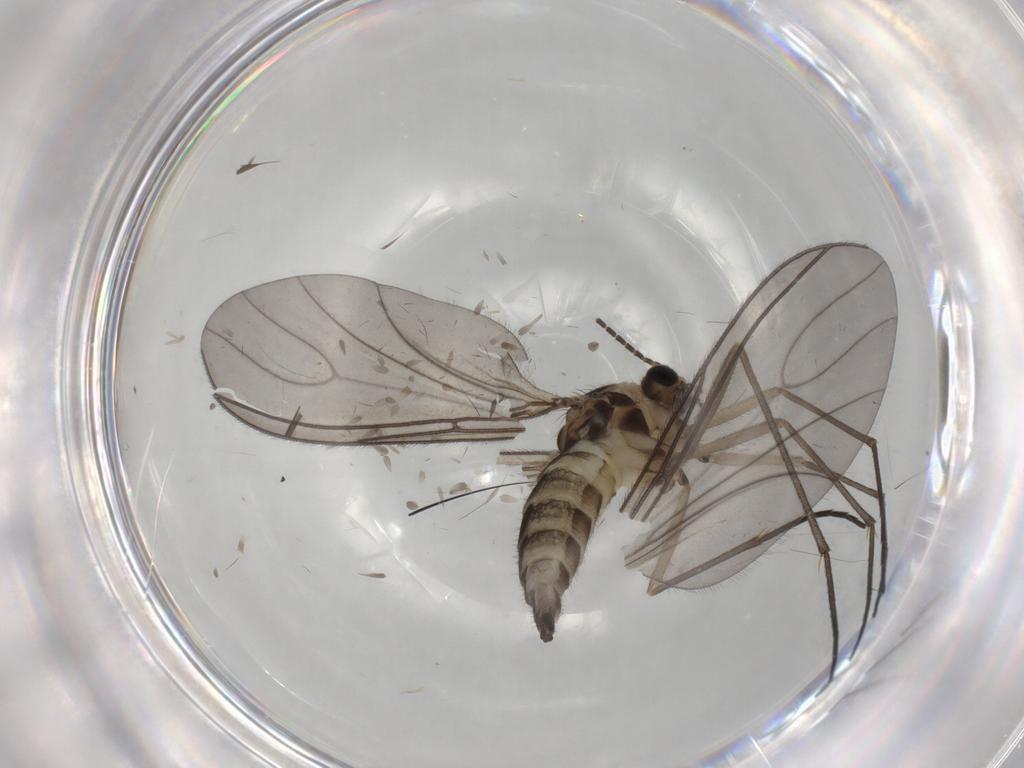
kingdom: Animalia
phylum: Arthropoda
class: Insecta
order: Diptera
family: Sciaridae
